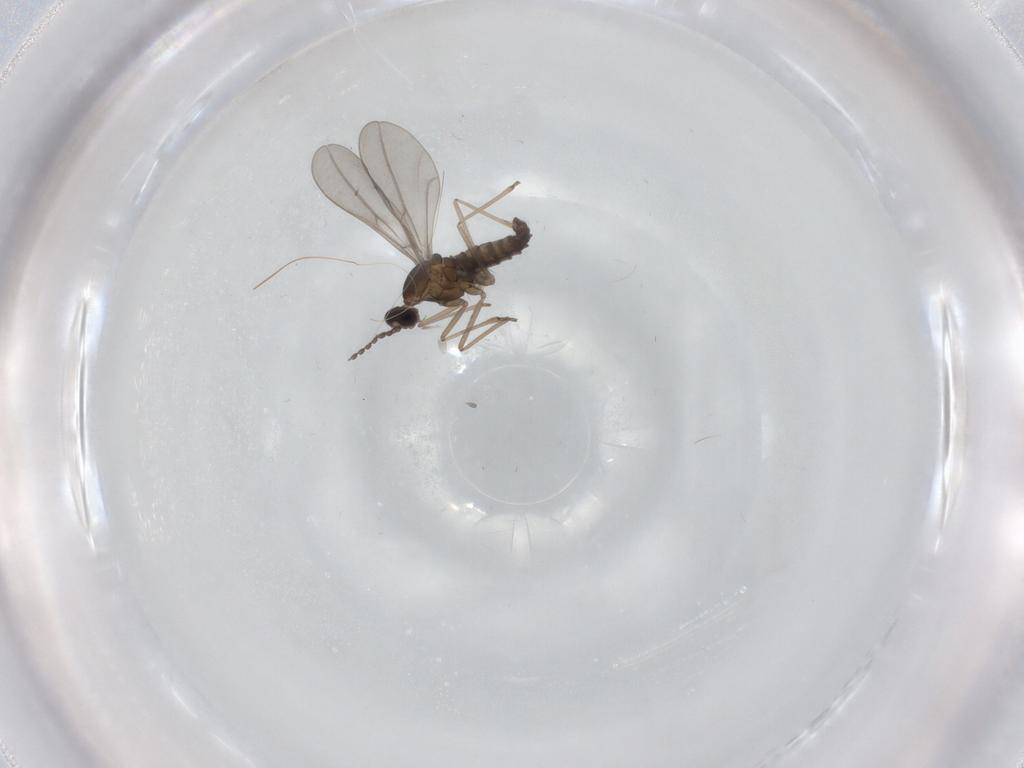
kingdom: Animalia
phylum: Arthropoda
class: Insecta
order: Diptera
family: Cecidomyiidae
